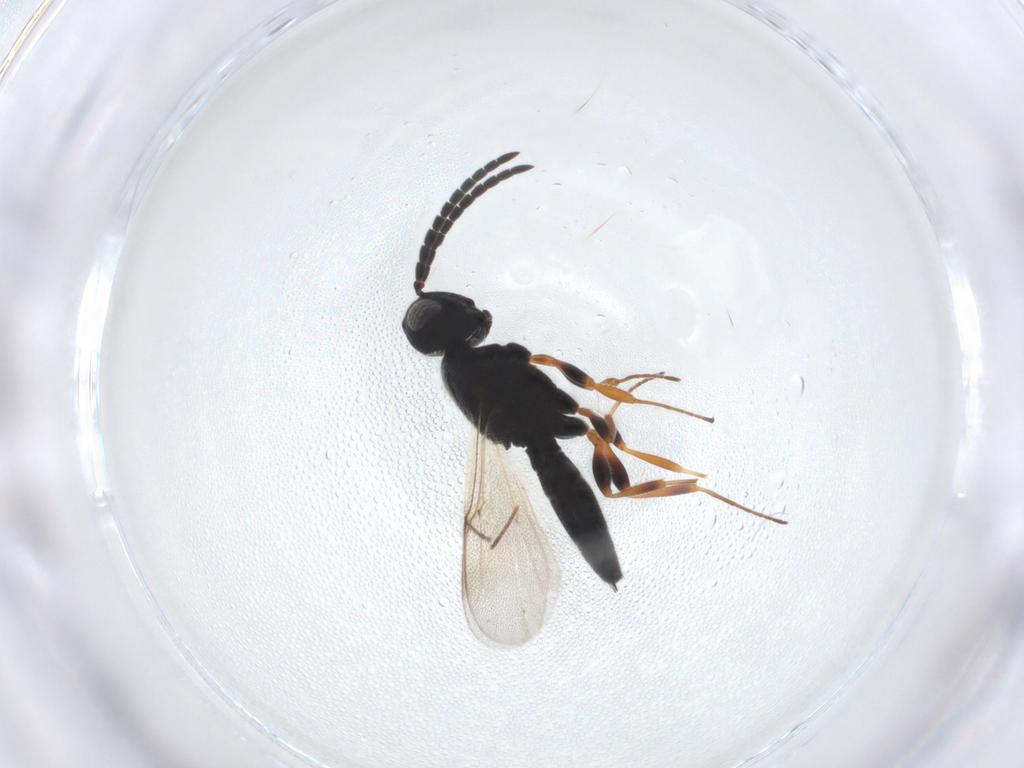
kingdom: Animalia
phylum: Arthropoda
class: Insecta
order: Hymenoptera
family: Scelionidae
